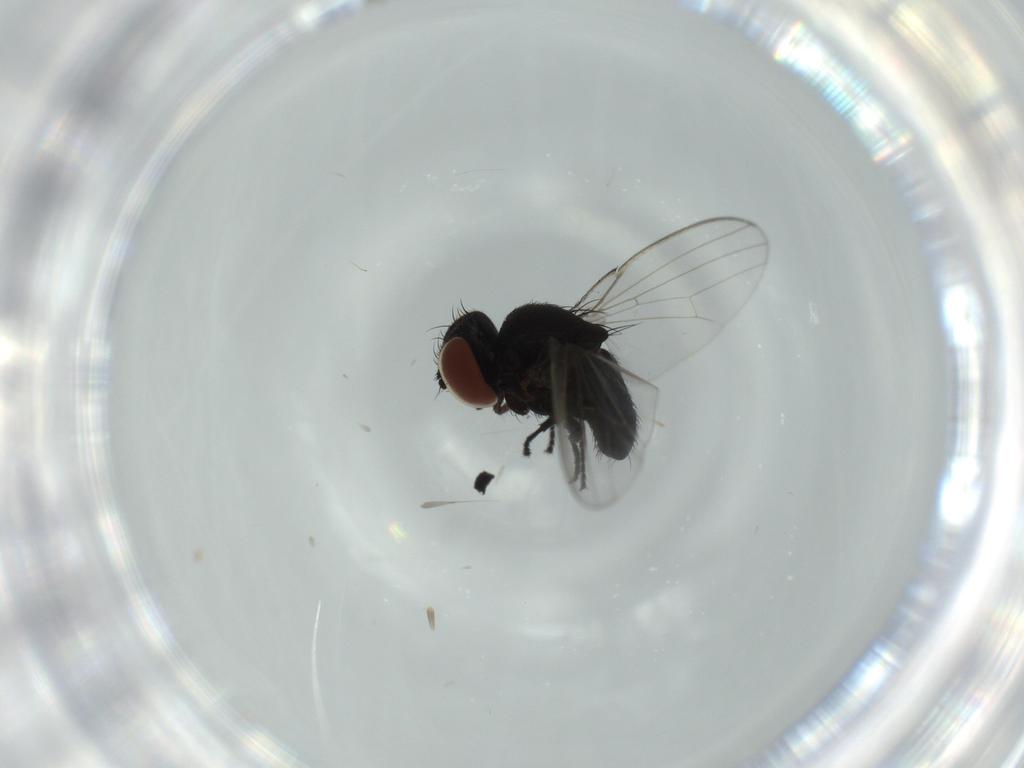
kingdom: Animalia
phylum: Arthropoda
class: Insecta
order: Diptera
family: Milichiidae
